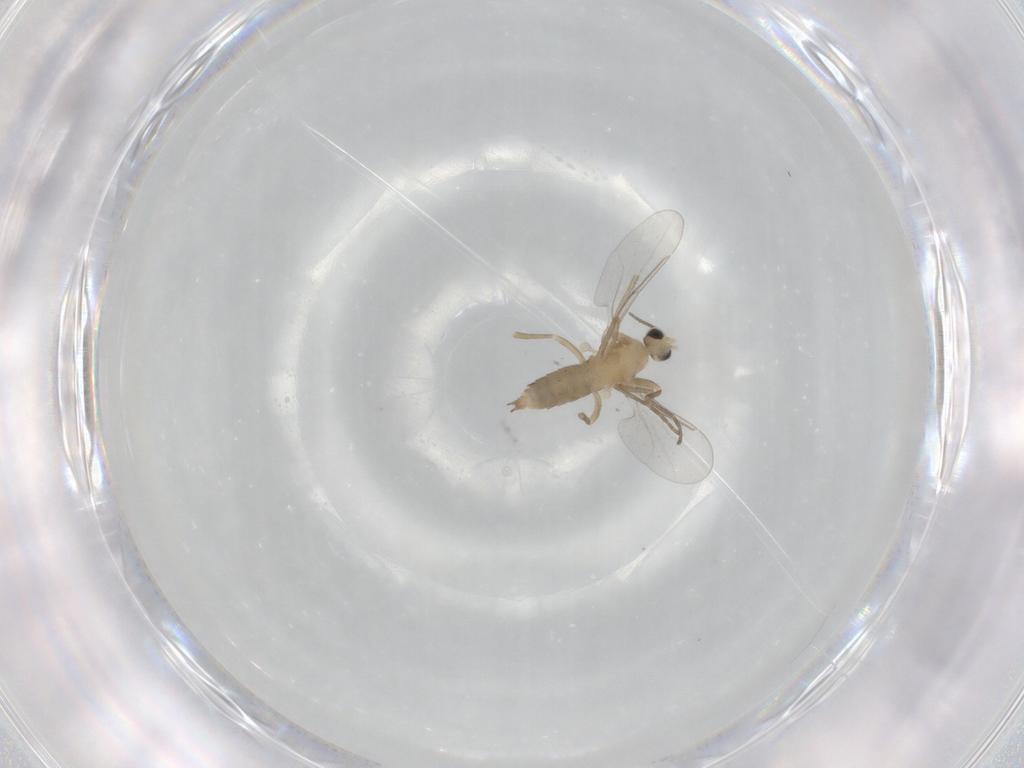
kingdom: Animalia
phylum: Arthropoda
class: Insecta
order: Diptera
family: Cecidomyiidae
